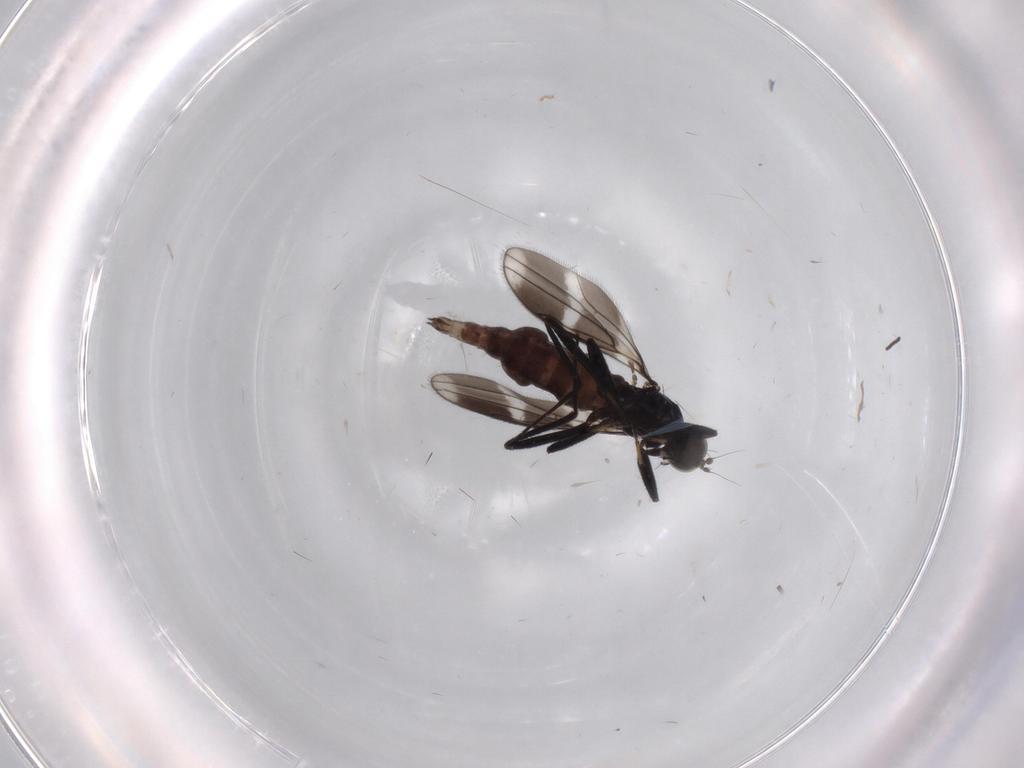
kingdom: Animalia
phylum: Arthropoda
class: Insecta
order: Diptera
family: Hybotidae
